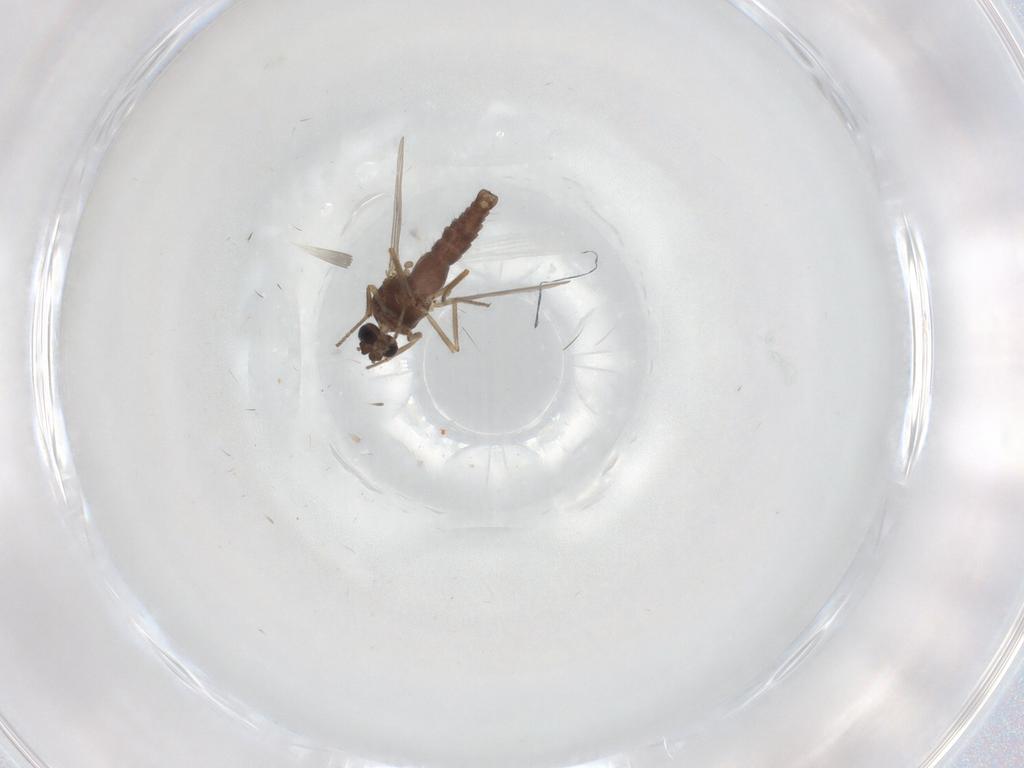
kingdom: Animalia
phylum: Arthropoda
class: Insecta
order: Diptera
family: Ceratopogonidae
